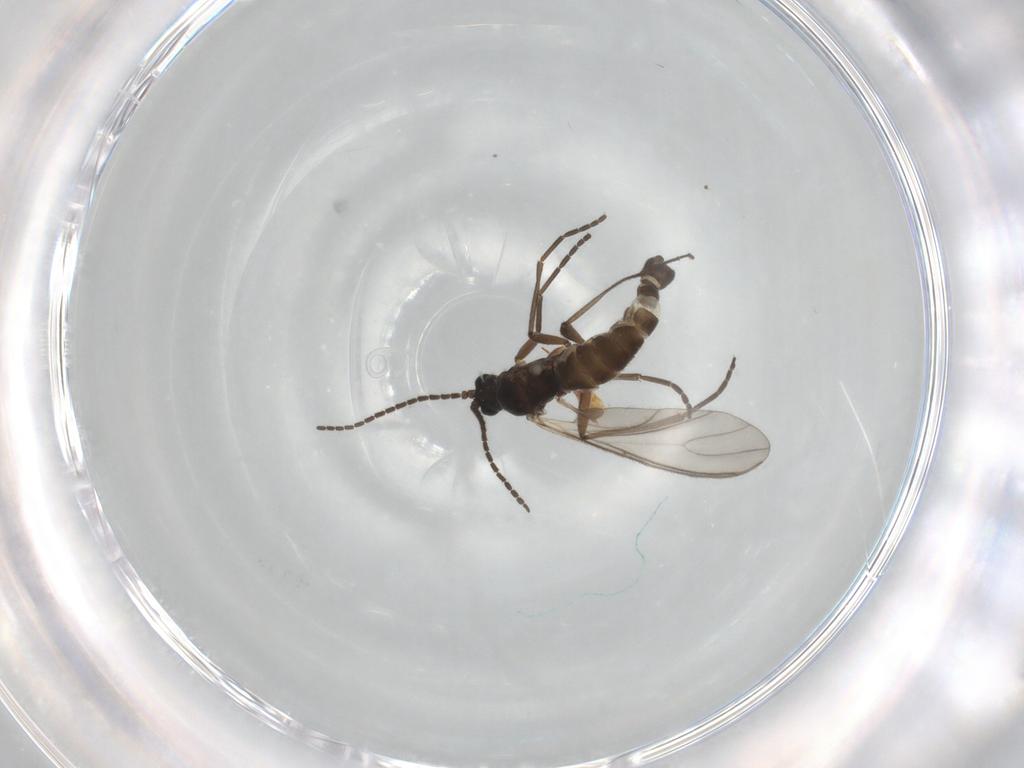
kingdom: Animalia
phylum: Arthropoda
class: Insecta
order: Diptera
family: Sciaridae
